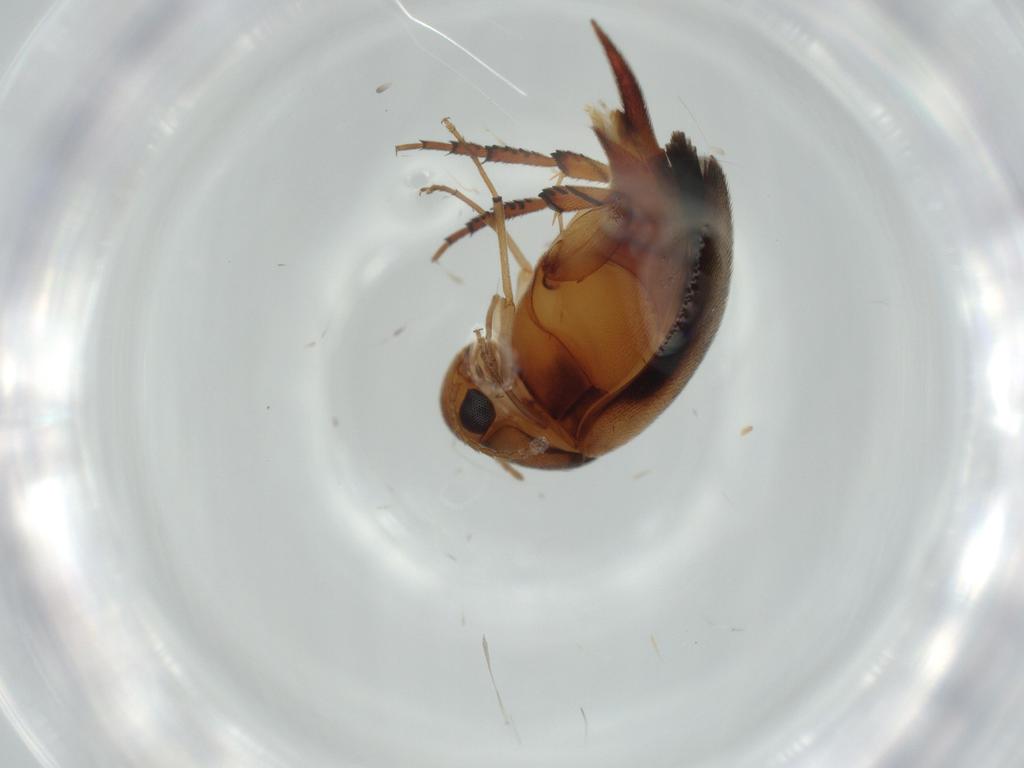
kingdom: Animalia
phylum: Arthropoda
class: Insecta
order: Coleoptera
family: Mordellidae
